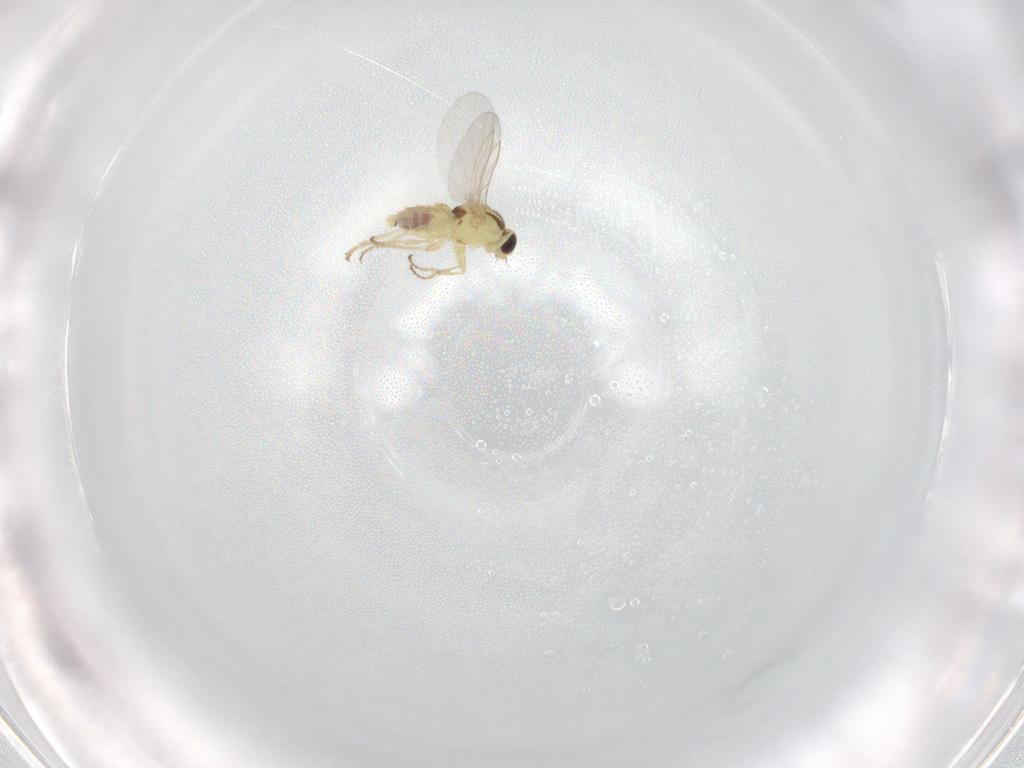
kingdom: Animalia
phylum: Arthropoda
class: Insecta
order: Diptera
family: Agromyzidae
